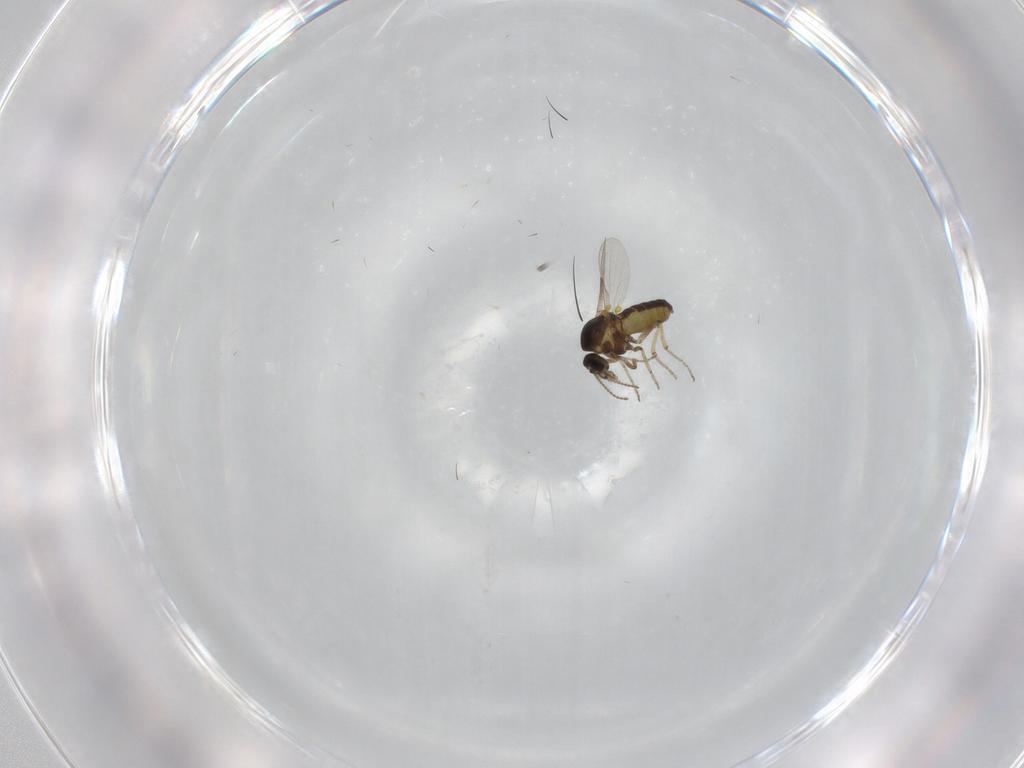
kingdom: Animalia
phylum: Arthropoda
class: Insecta
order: Diptera
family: Ceratopogonidae
